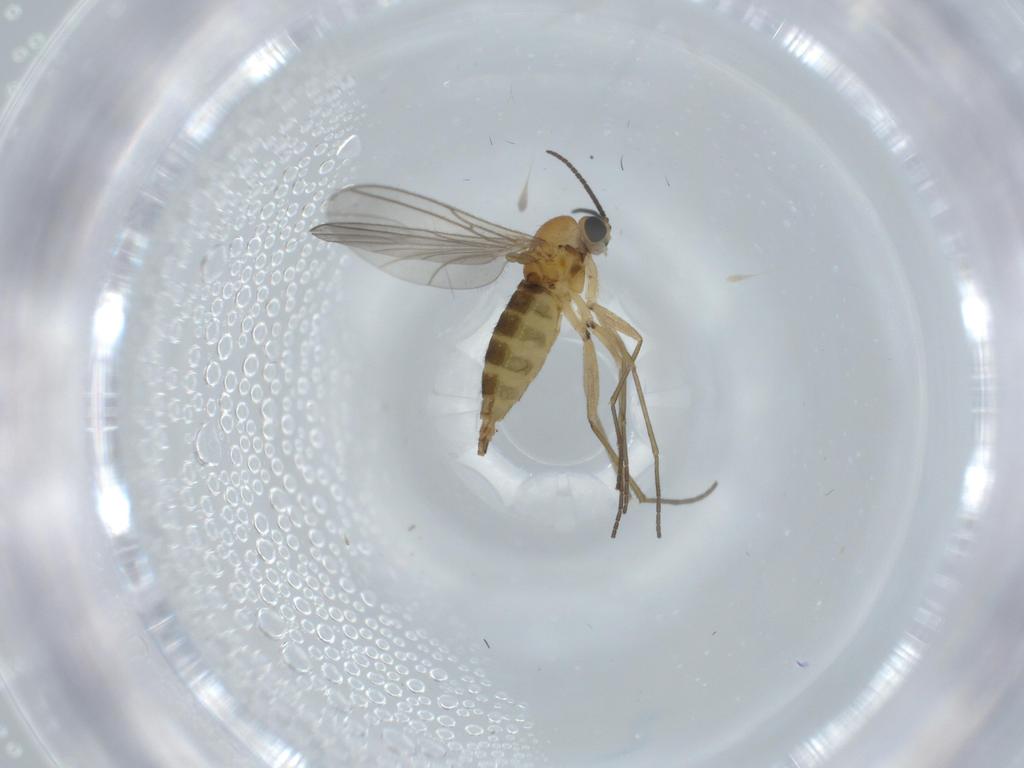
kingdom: Animalia
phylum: Arthropoda
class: Insecta
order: Diptera
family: Sciaridae
